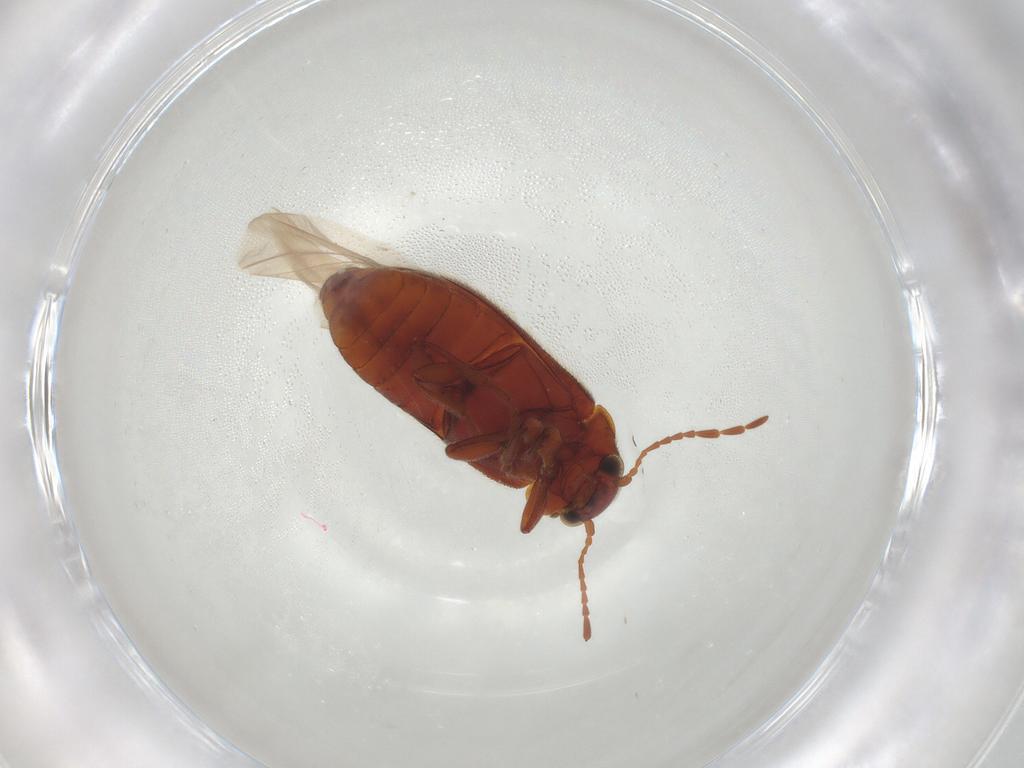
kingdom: Animalia
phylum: Arthropoda
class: Insecta
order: Coleoptera
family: Ptinidae
